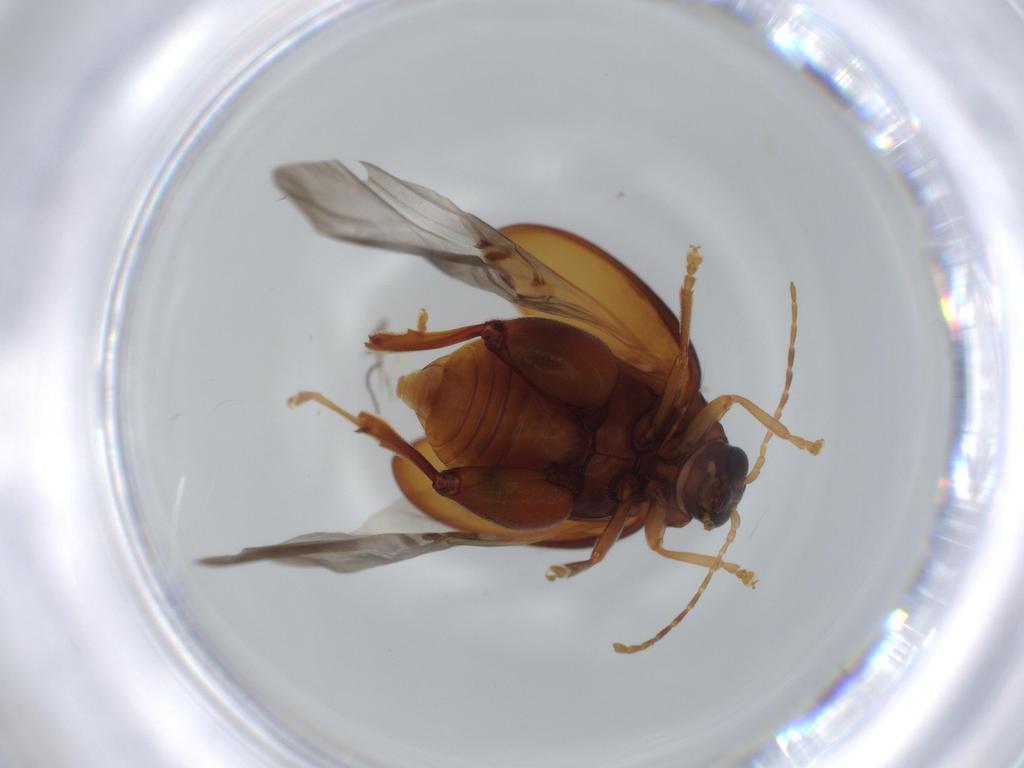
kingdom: Animalia
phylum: Arthropoda
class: Insecta
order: Coleoptera
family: Chrysomelidae
